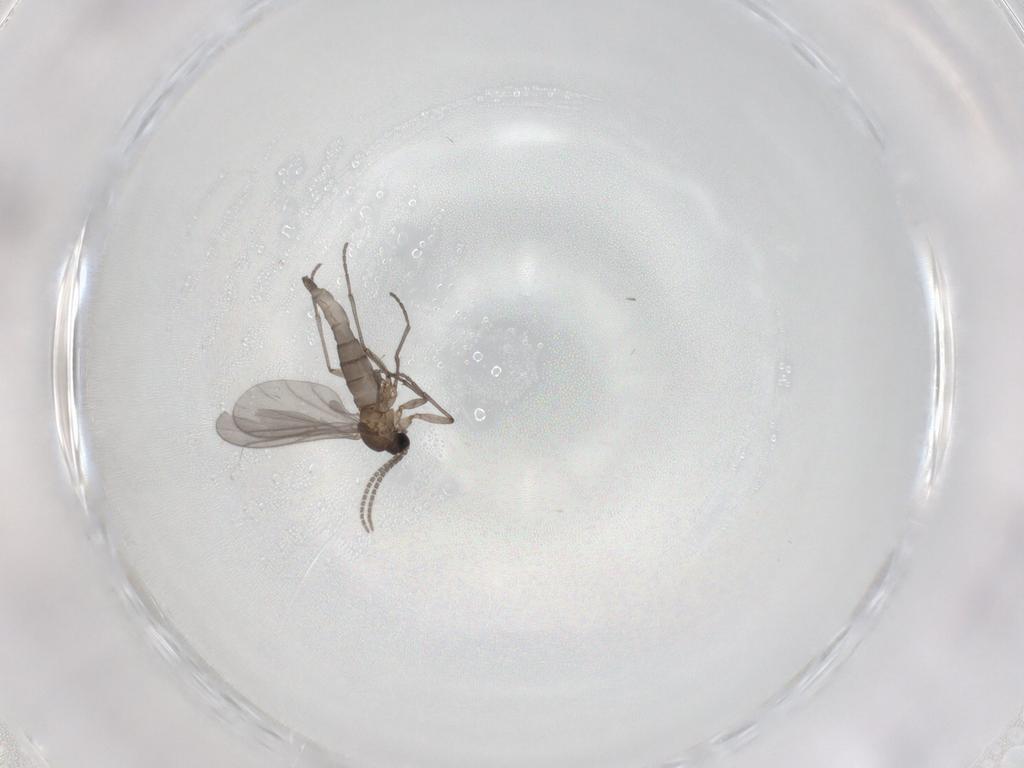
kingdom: Animalia
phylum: Arthropoda
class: Insecta
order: Diptera
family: Sciaridae
